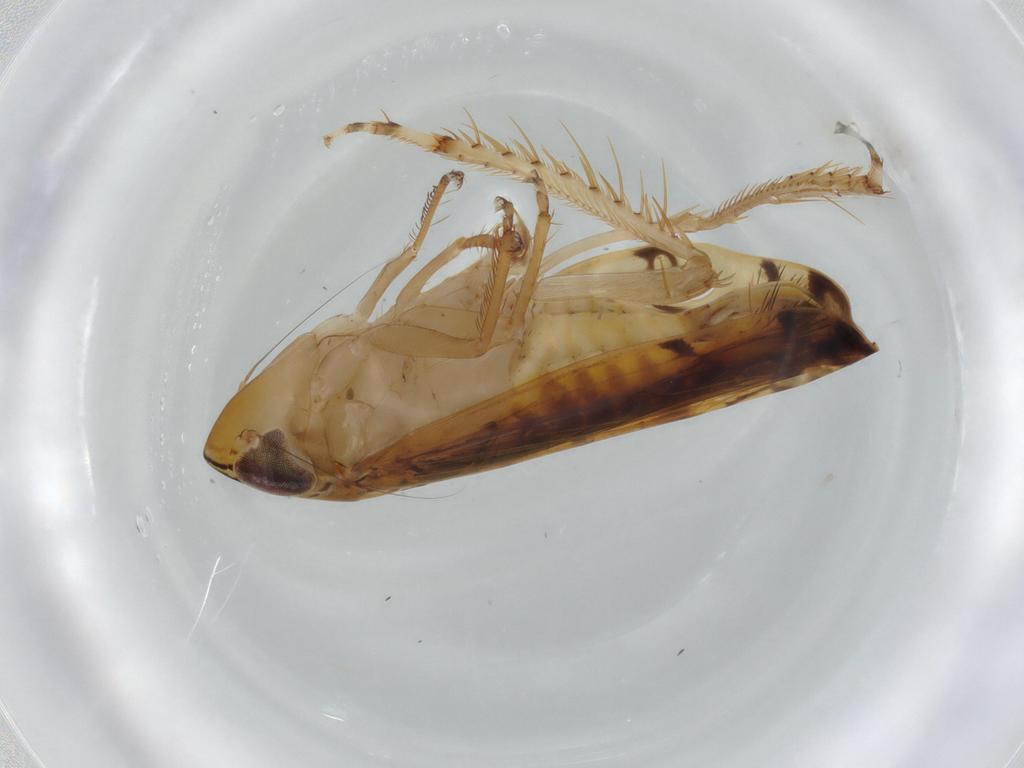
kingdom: Animalia
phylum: Arthropoda
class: Insecta
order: Hemiptera
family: Cicadellidae
